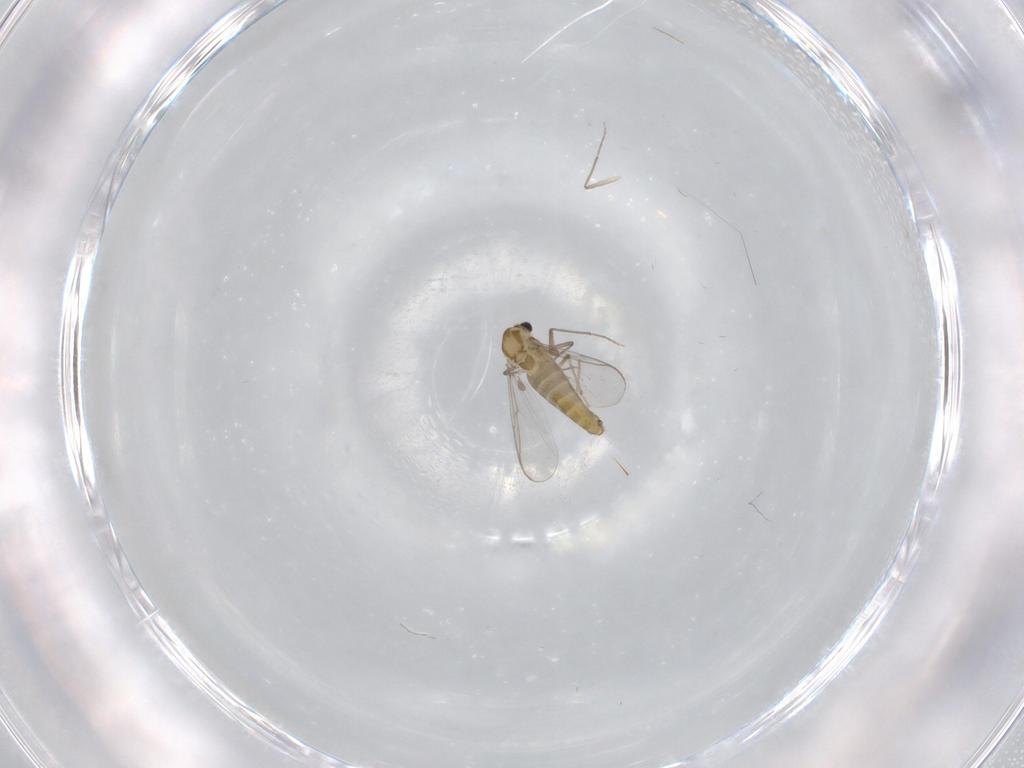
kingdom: Animalia
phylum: Arthropoda
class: Insecta
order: Diptera
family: Chironomidae
